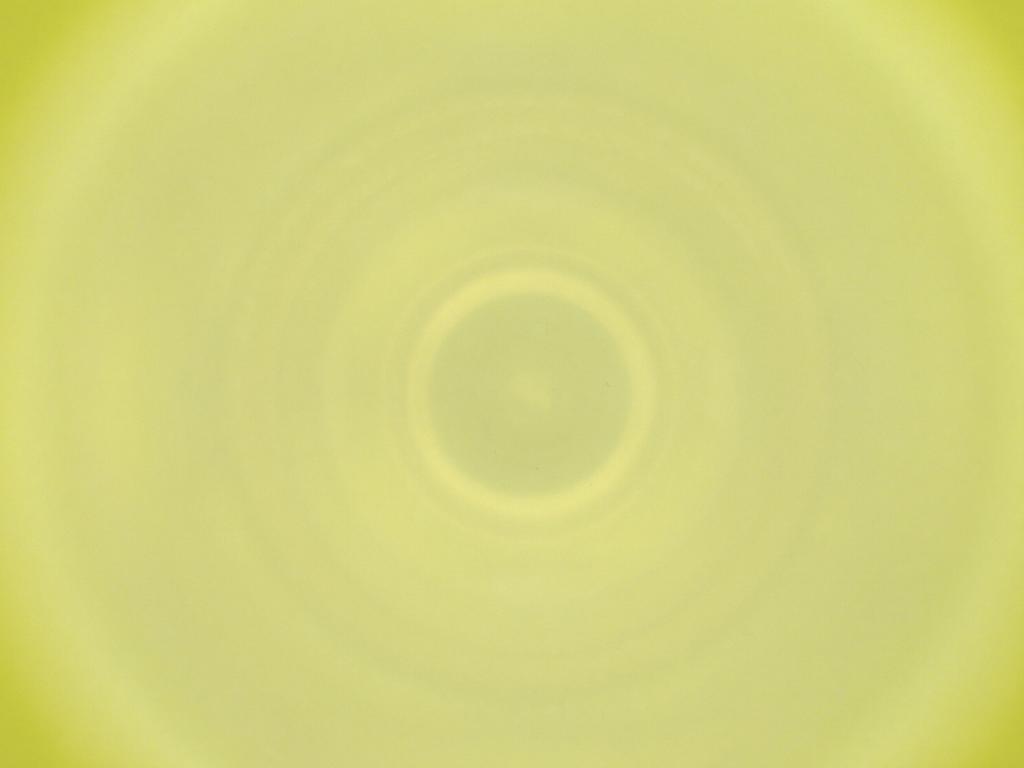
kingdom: Animalia
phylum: Arthropoda
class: Insecta
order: Diptera
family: Cecidomyiidae
